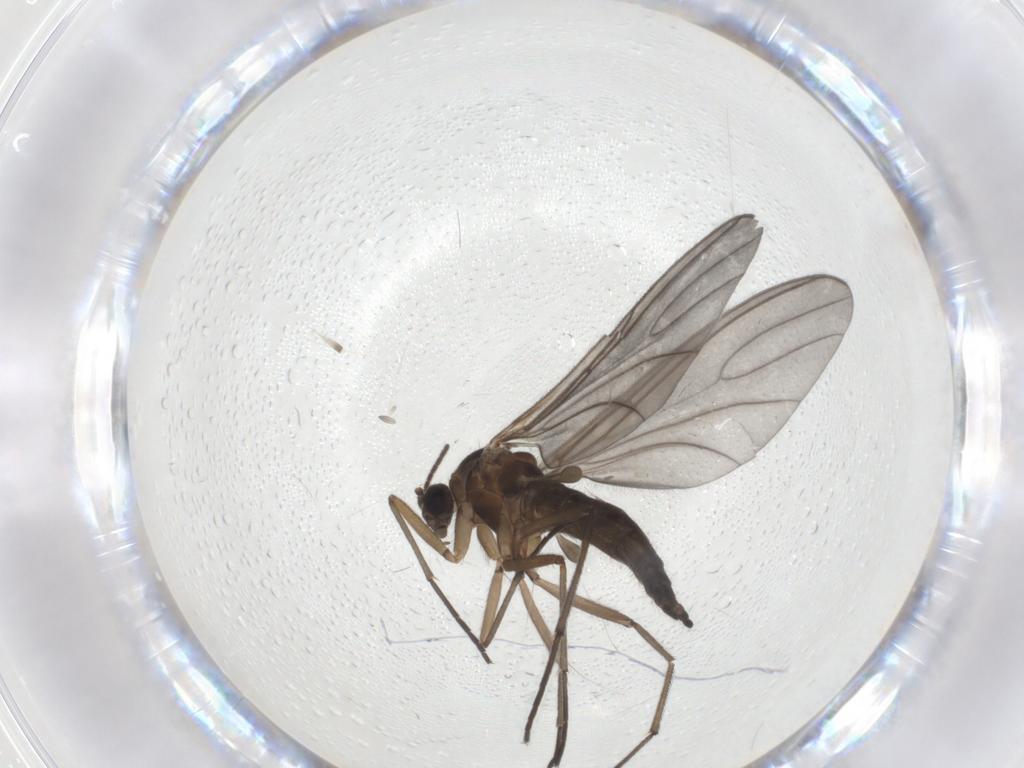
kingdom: Animalia
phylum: Arthropoda
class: Insecta
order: Diptera
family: Sciaridae
